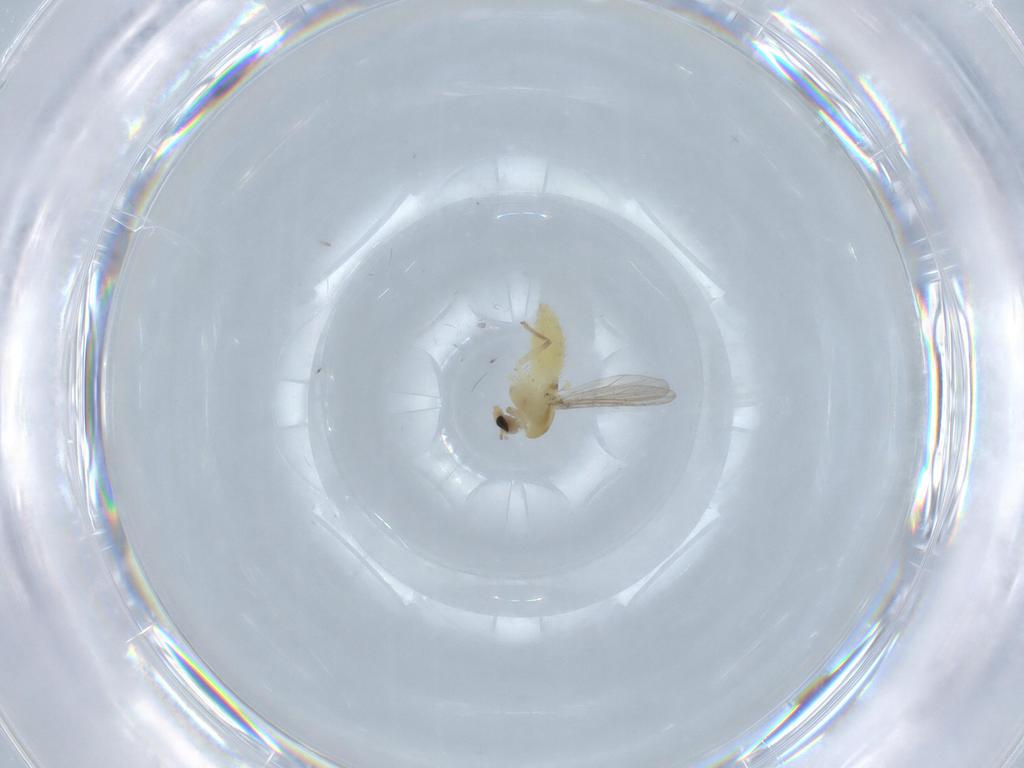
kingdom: Animalia
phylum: Arthropoda
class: Insecta
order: Diptera
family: Chironomidae
